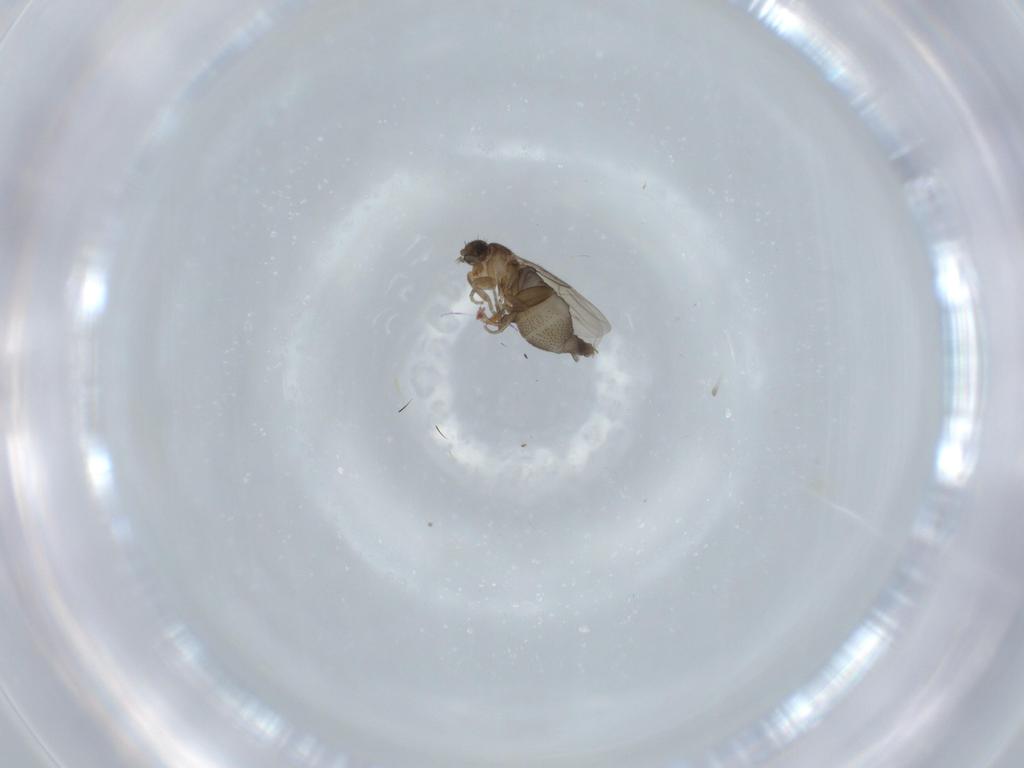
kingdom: Animalia
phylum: Arthropoda
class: Insecta
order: Diptera
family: Phoridae
